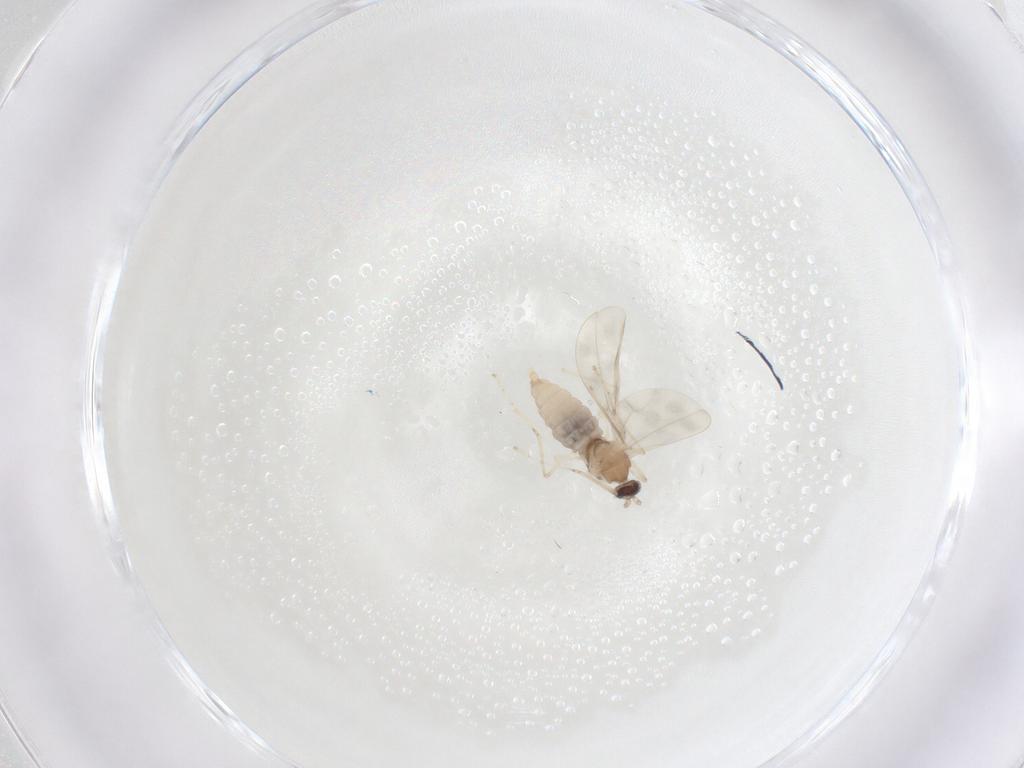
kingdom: Animalia
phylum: Arthropoda
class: Insecta
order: Diptera
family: Cecidomyiidae
